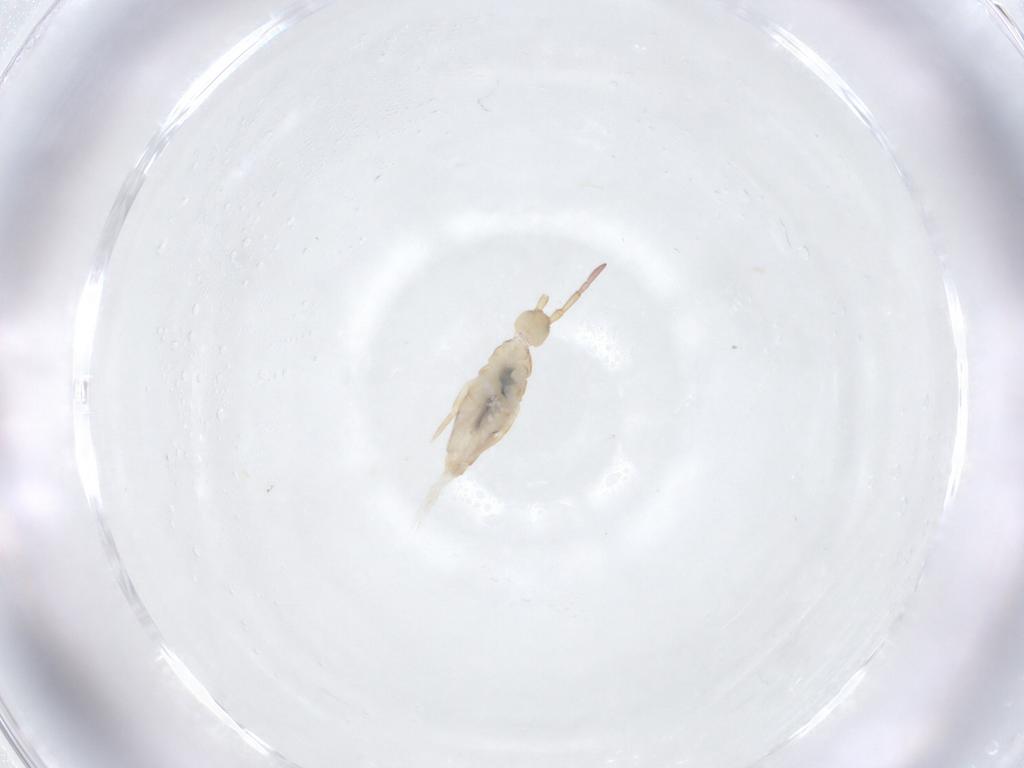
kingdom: Animalia
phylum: Arthropoda
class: Collembola
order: Entomobryomorpha
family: Entomobryidae
